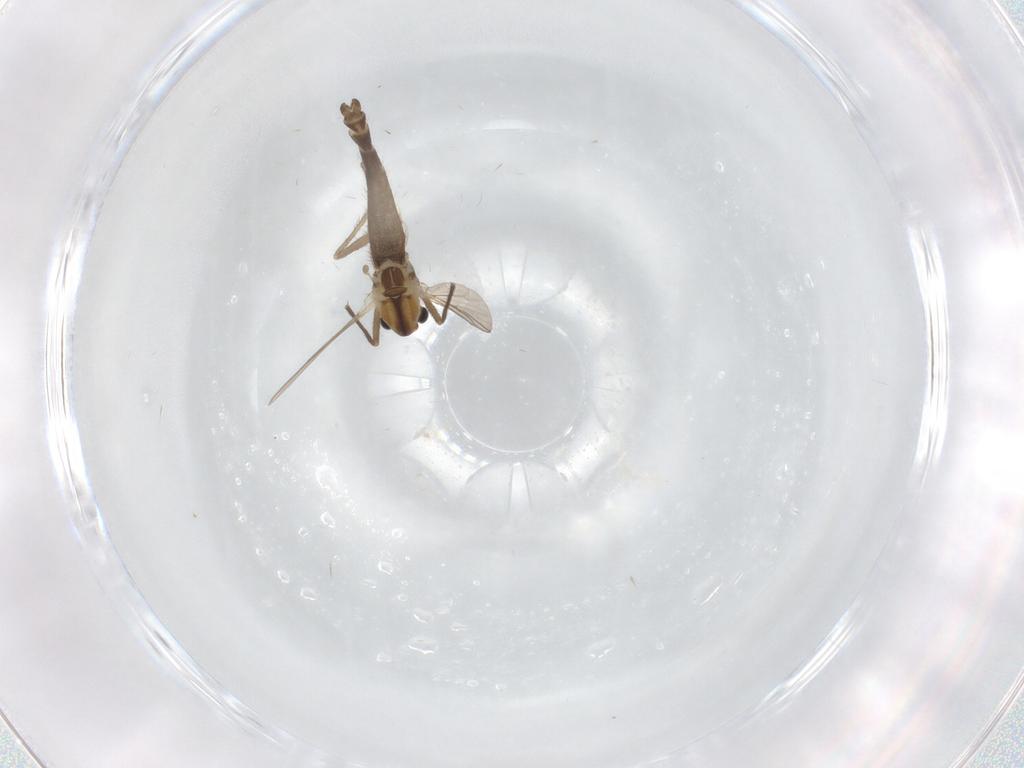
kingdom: Animalia
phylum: Arthropoda
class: Insecta
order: Diptera
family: Chironomidae
